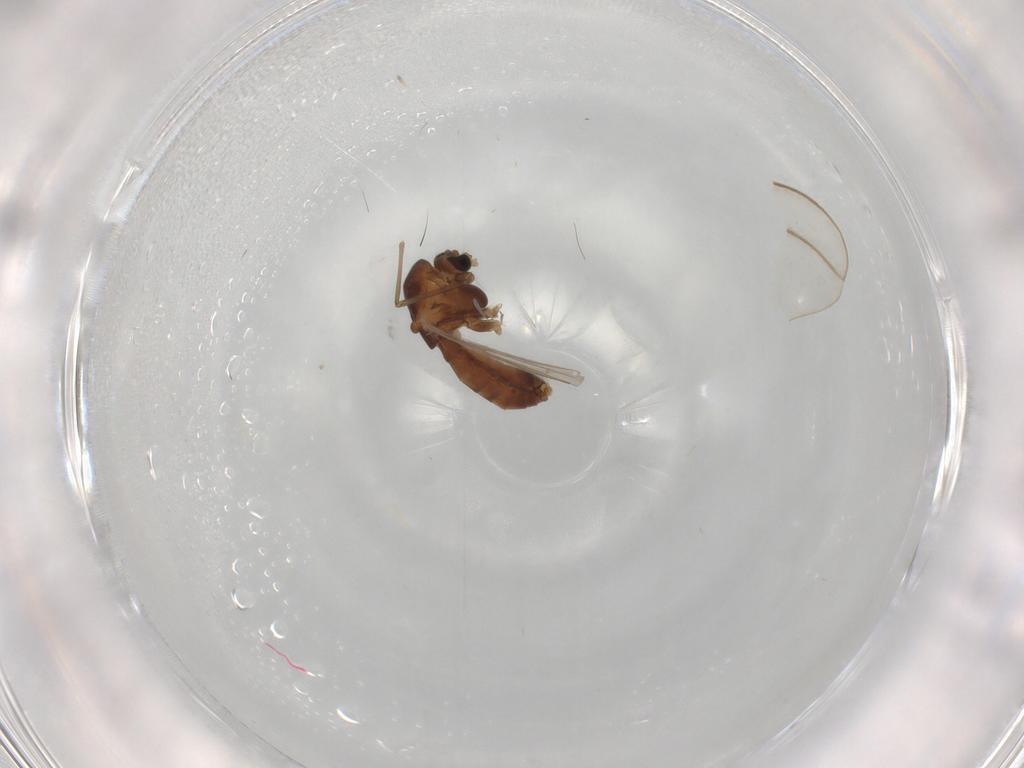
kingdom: Animalia
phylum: Arthropoda
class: Insecta
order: Diptera
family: Chironomidae
